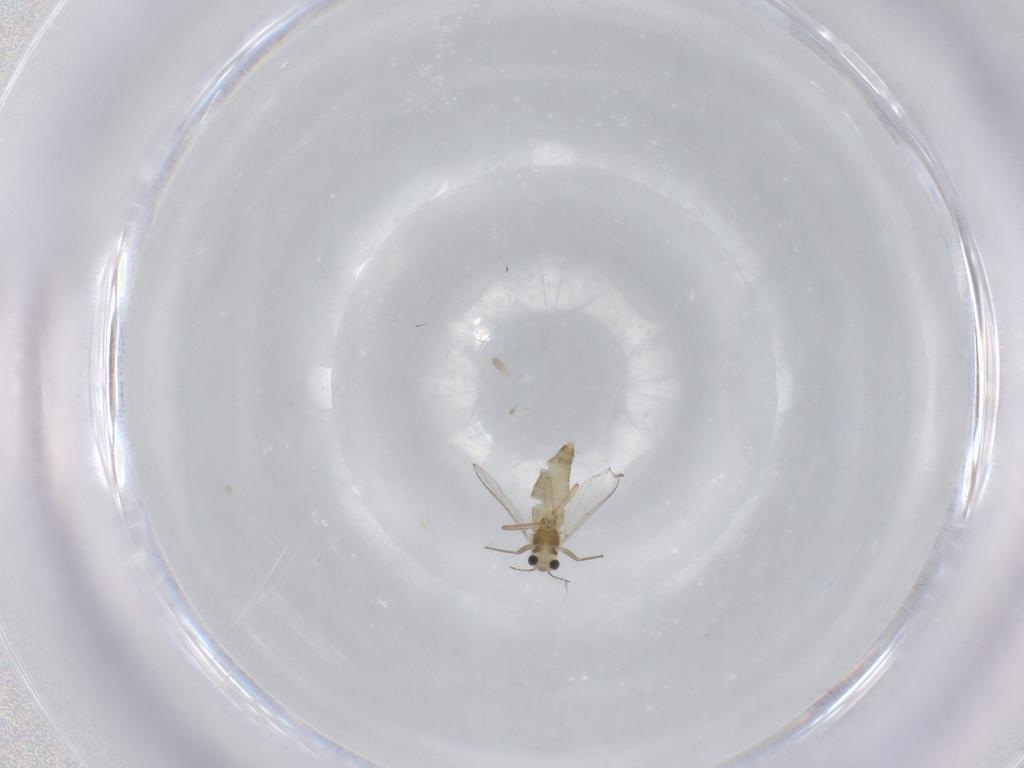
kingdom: Animalia
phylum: Arthropoda
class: Insecta
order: Diptera
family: Chironomidae
